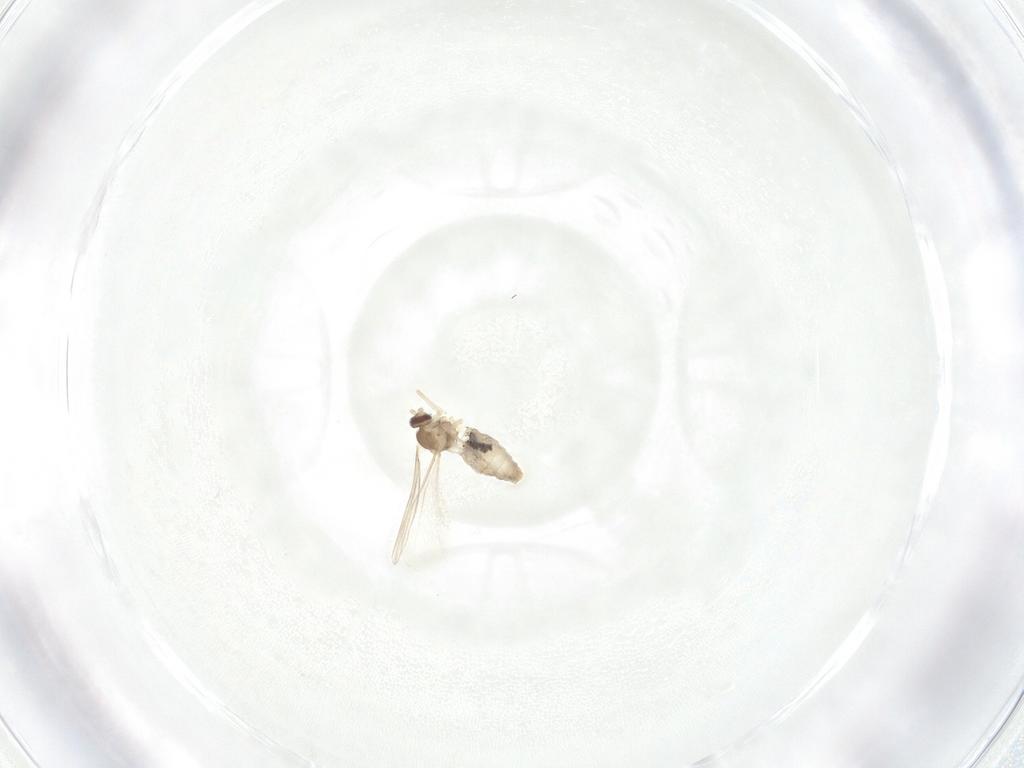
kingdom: Animalia
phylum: Arthropoda
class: Insecta
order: Diptera
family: Cecidomyiidae
